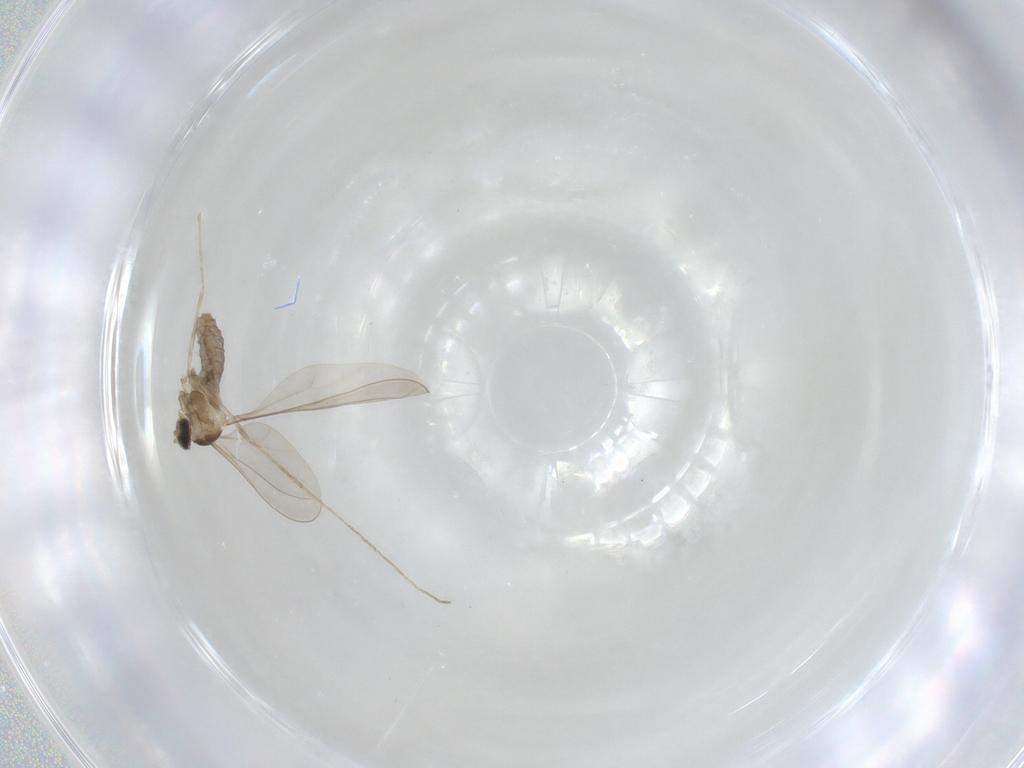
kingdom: Animalia
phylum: Arthropoda
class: Insecta
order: Diptera
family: Cecidomyiidae
